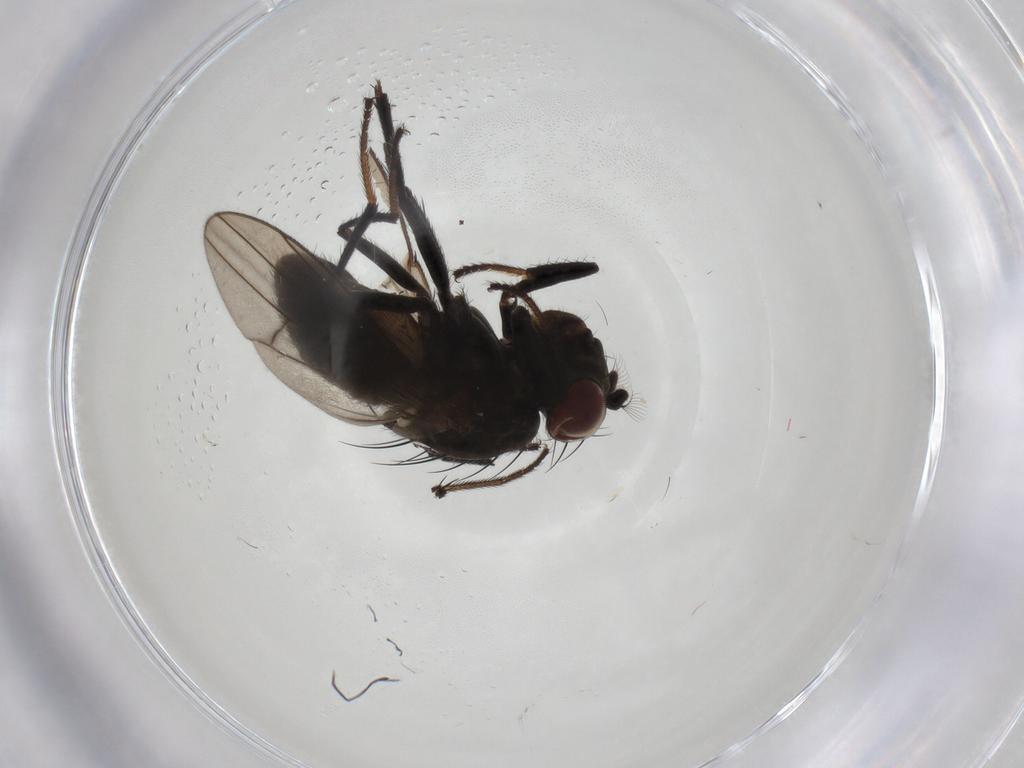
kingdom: Animalia
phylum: Arthropoda
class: Insecta
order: Diptera
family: Ephydridae
